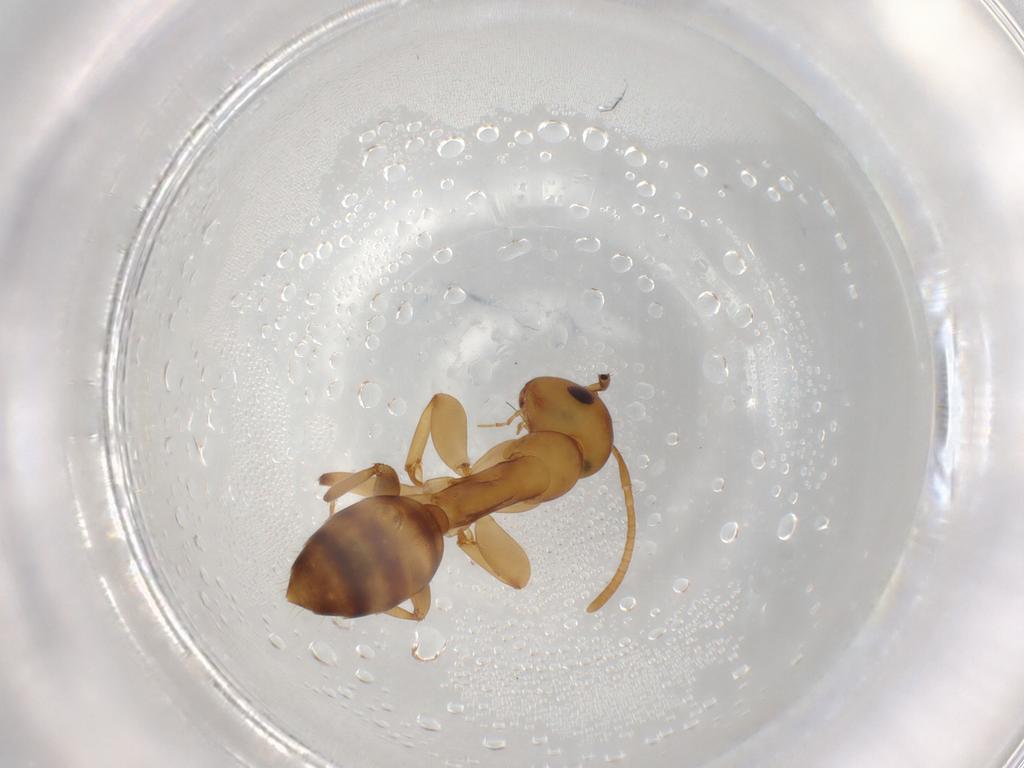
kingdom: Animalia
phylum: Arthropoda
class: Insecta
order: Hymenoptera
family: Formicidae
